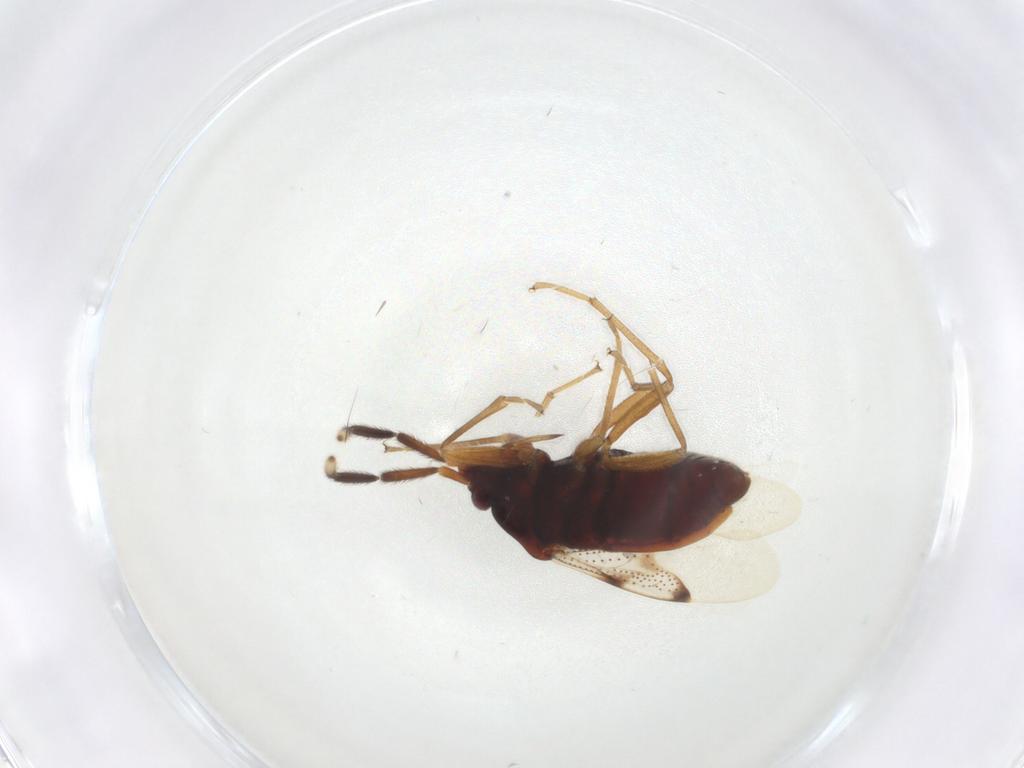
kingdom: Animalia
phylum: Arthropoda
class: Insecta
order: Hemiptera
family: Rhyparochromidae
